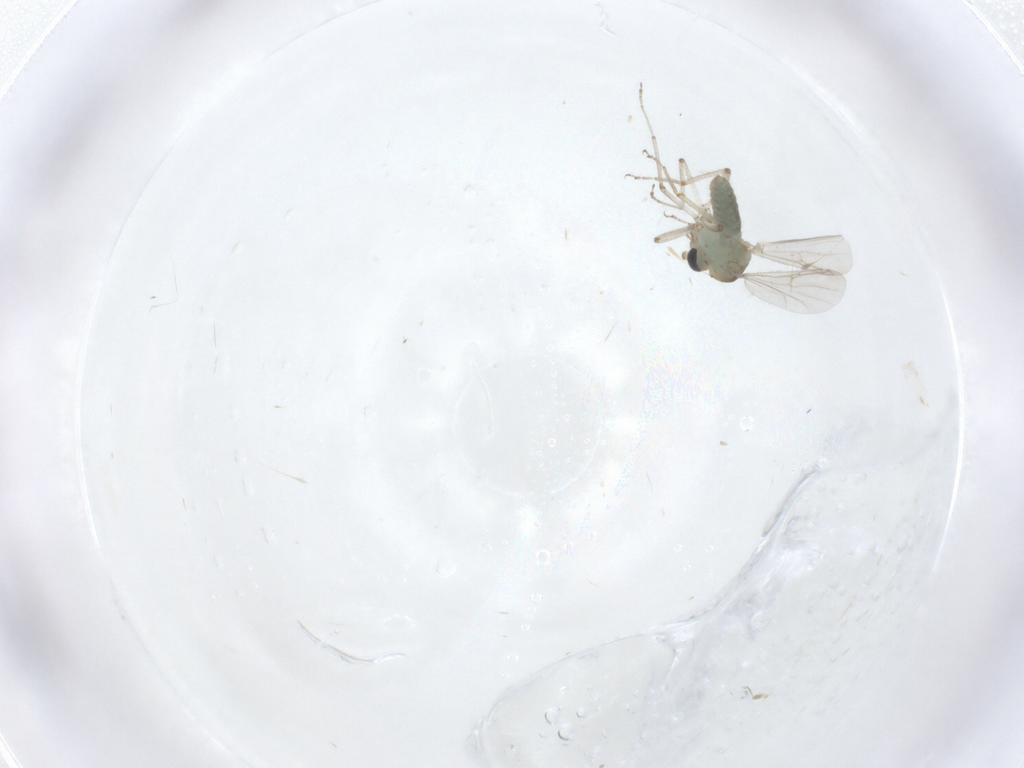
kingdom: Animalia
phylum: Arthropoda
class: Insecta
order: Diptera
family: Ceratopogonidae
